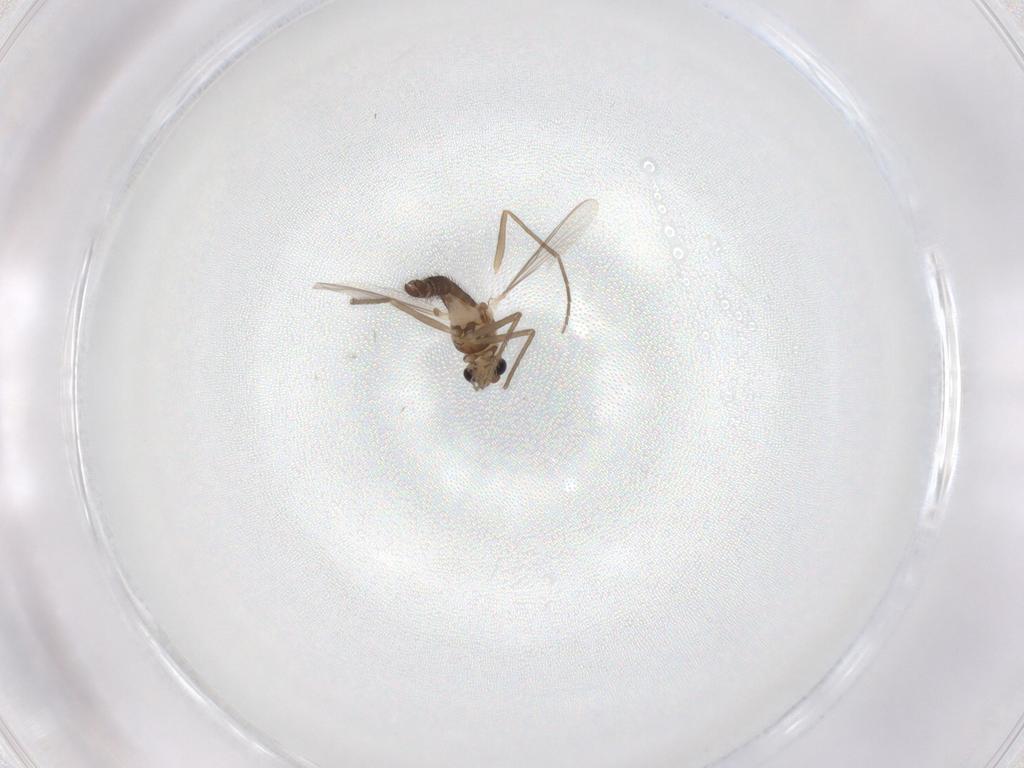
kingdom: Animalia
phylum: Arthropoda
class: Insecta
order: Diptera
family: Chironomidae
